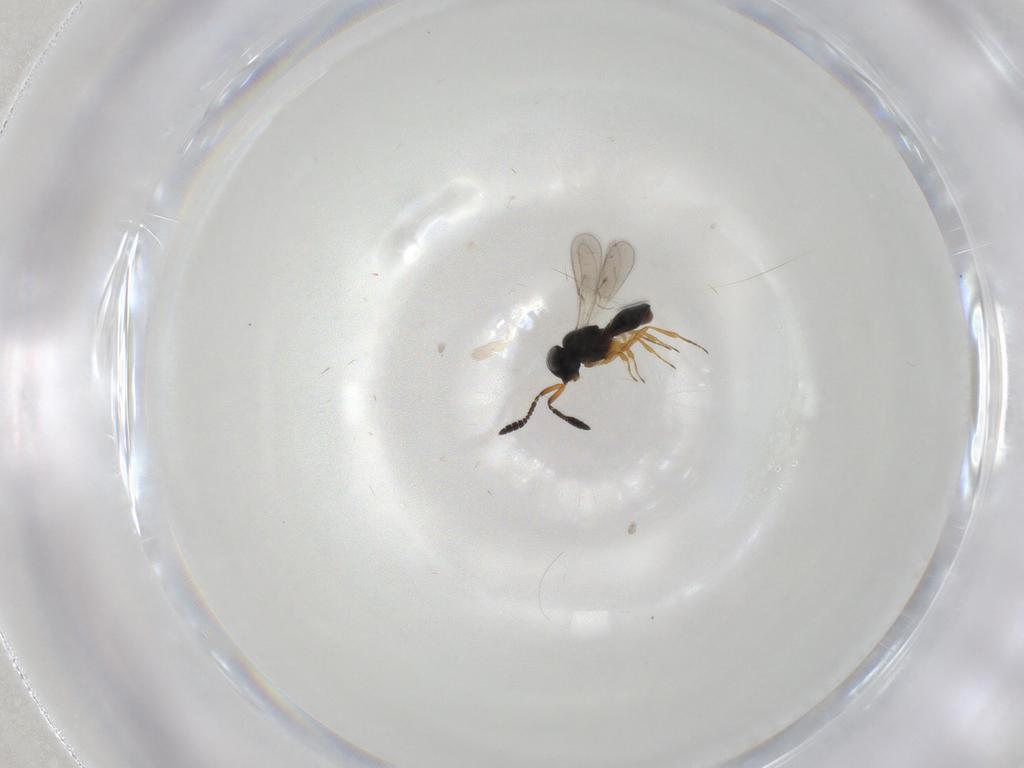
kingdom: Animalia
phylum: Arthropoda
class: Insecta
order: Hymenoptera
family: Scelionidae
